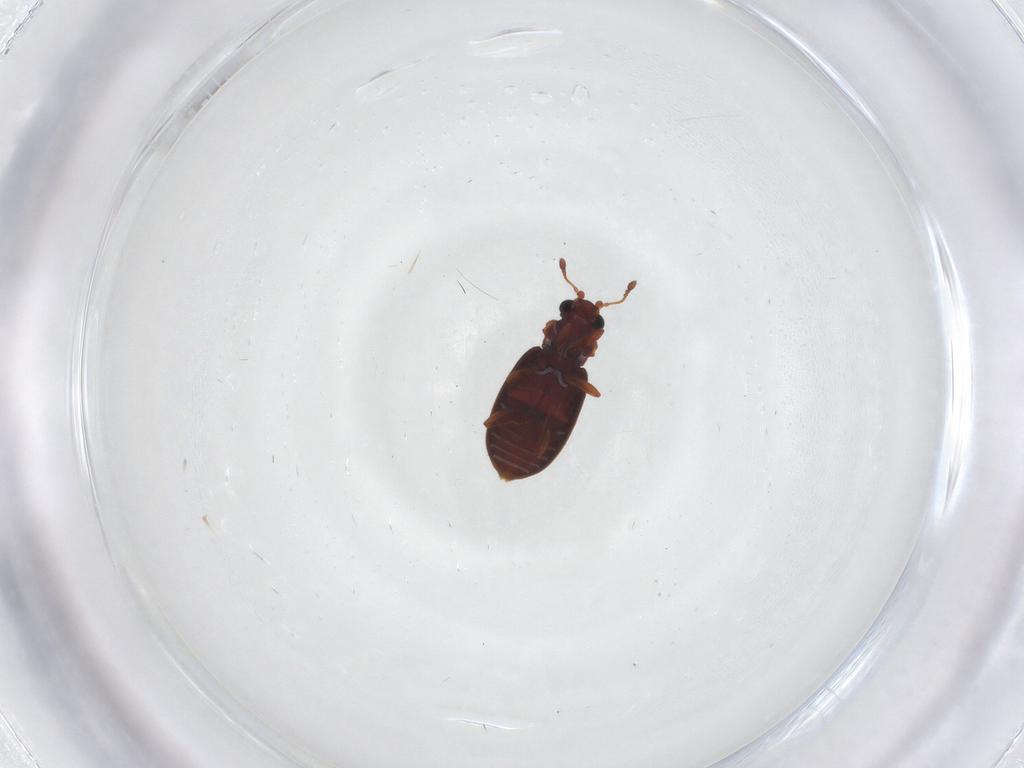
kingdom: Animalia
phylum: Arthropoda
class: Insecta
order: Coleoptera
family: Latridiidae
